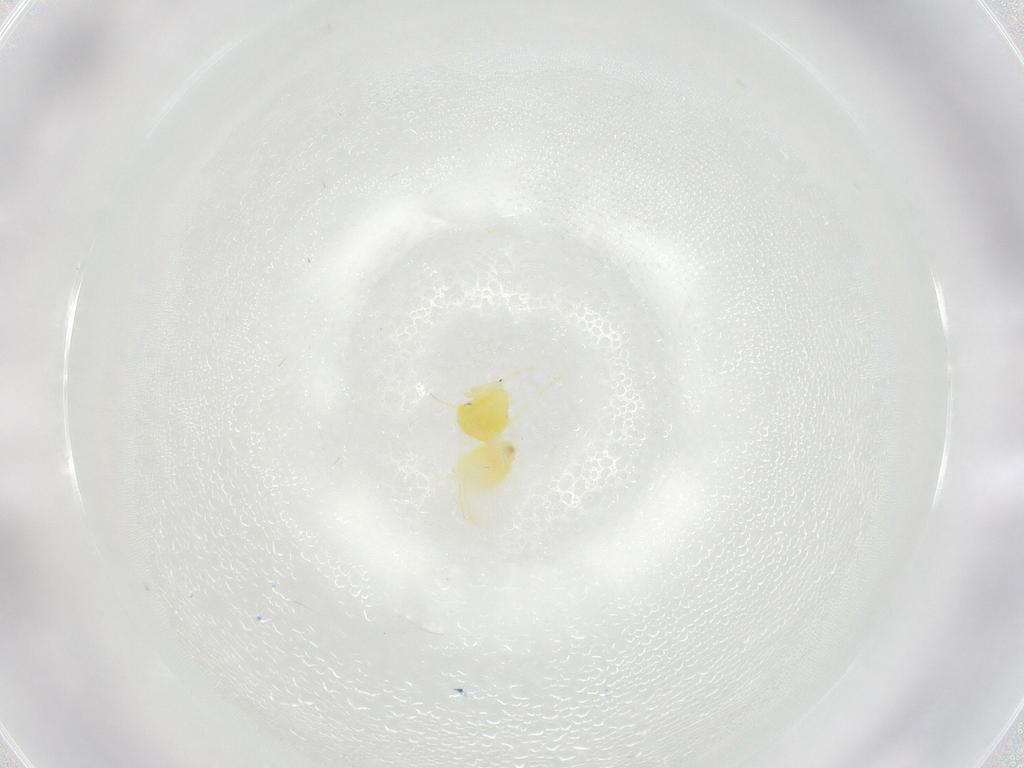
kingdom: Animalia
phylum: Arthropoda
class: Insecta
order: Hemiptera
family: Aleyrodidae
